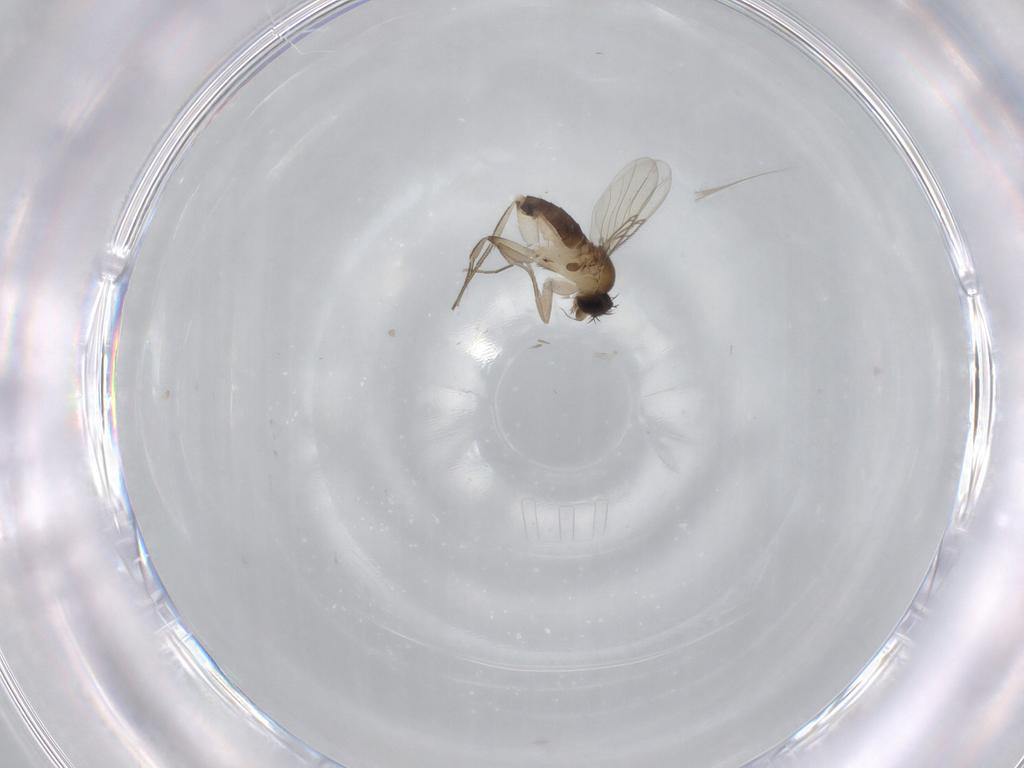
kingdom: Animalia
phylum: Arthropoda
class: Insecta
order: Diptera
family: Phoridae
